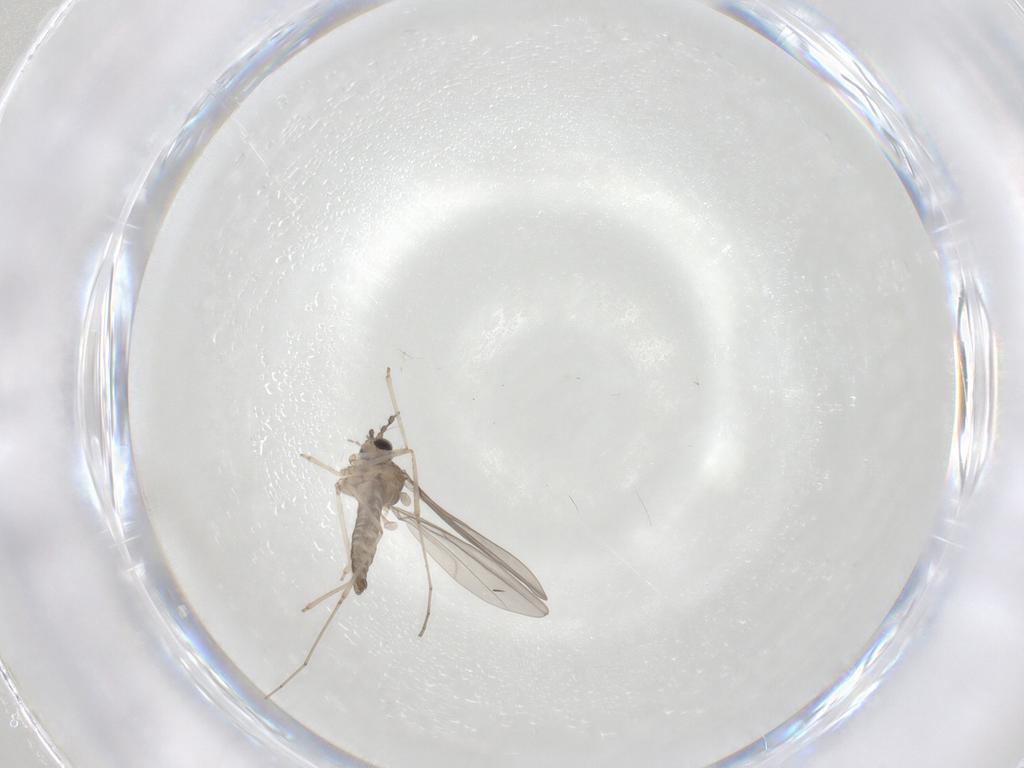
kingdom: Animalia
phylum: Arthropoda
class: Insecta
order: Diptera
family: Cecidomyiidae
